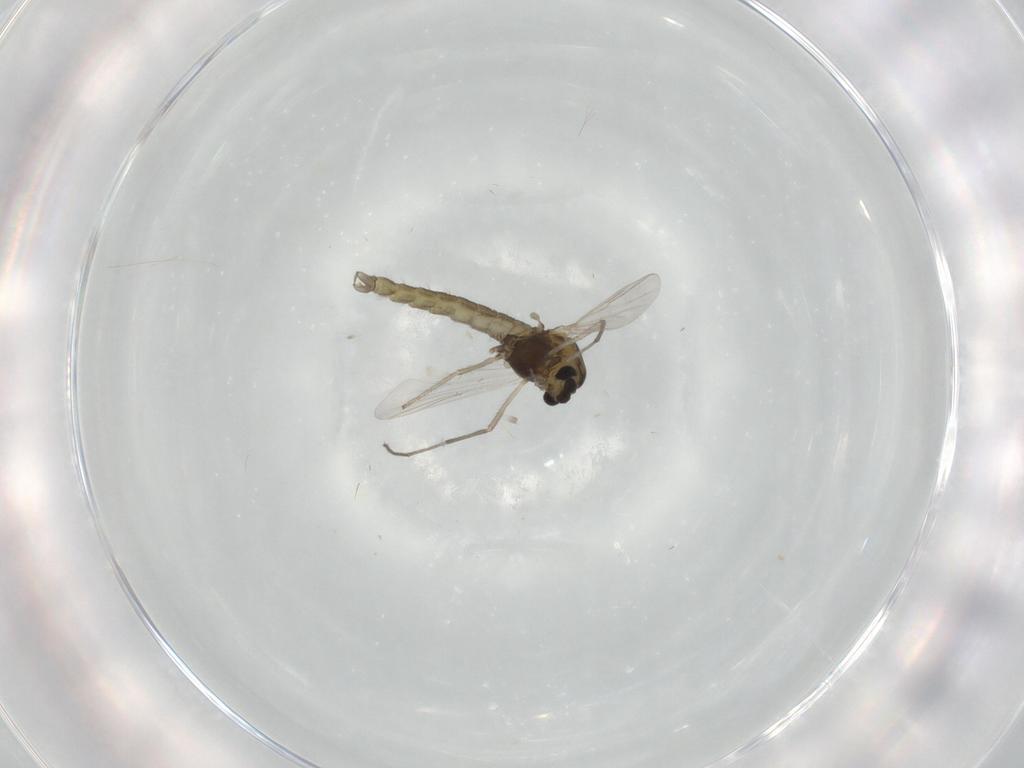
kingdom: Animalia
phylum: Arthropoda
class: Insecta
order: Diptera
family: Chironomidae
